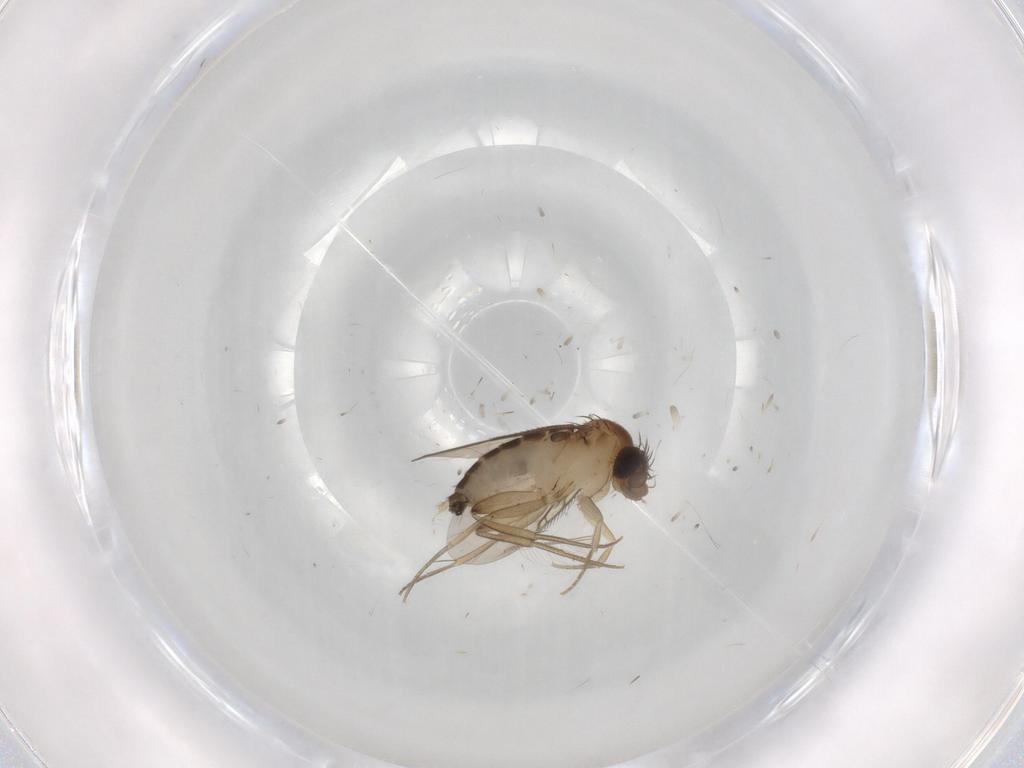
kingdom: Animalia
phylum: Arthropoda
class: Insecta
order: Diptera
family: Phoridae
